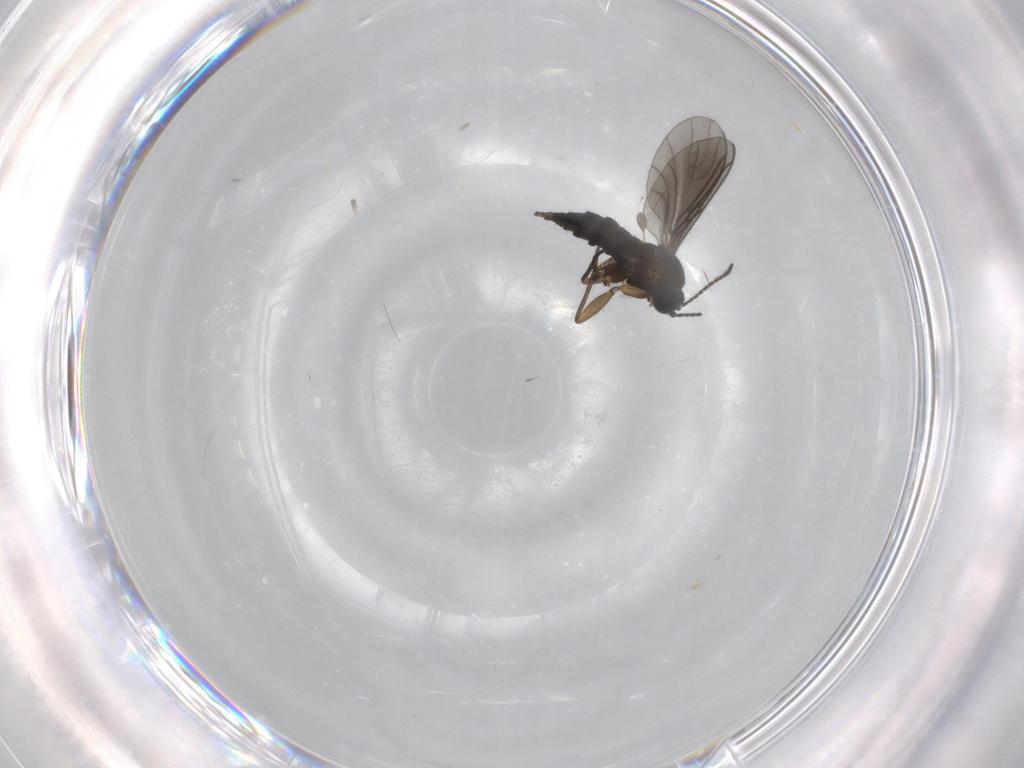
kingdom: Animalia
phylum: Arthropoda
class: Insecta
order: Diptera
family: Sciaridae
